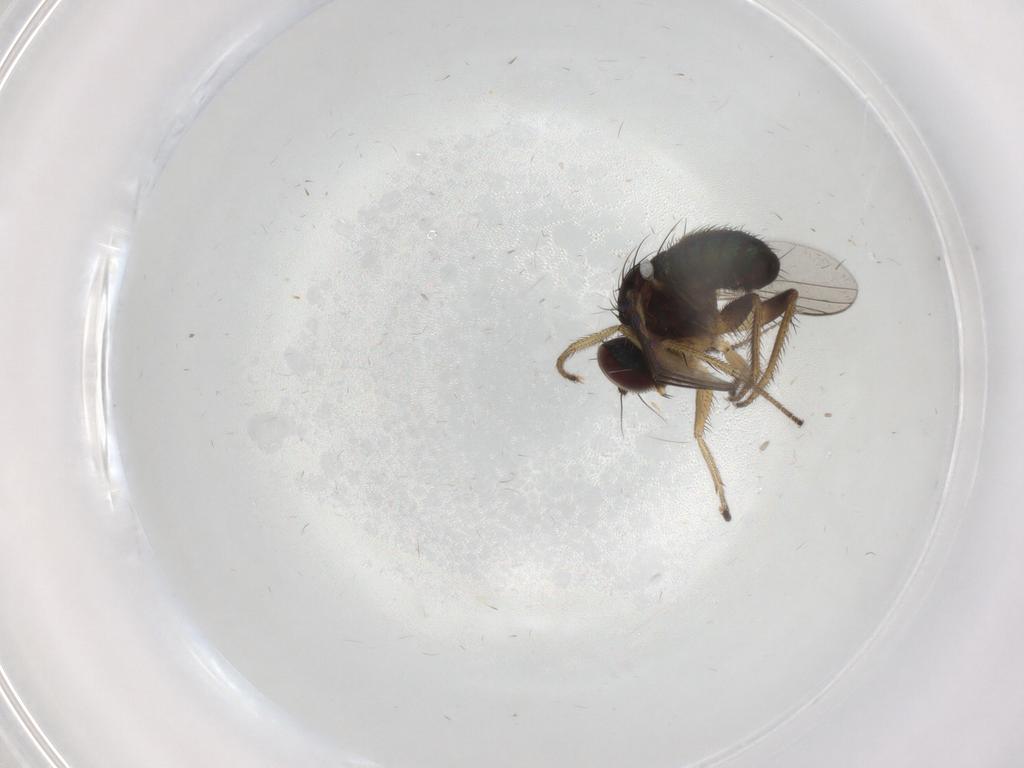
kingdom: Animalia
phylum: Arthropoda
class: Insecta
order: Diptera
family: Dolichopodidae
